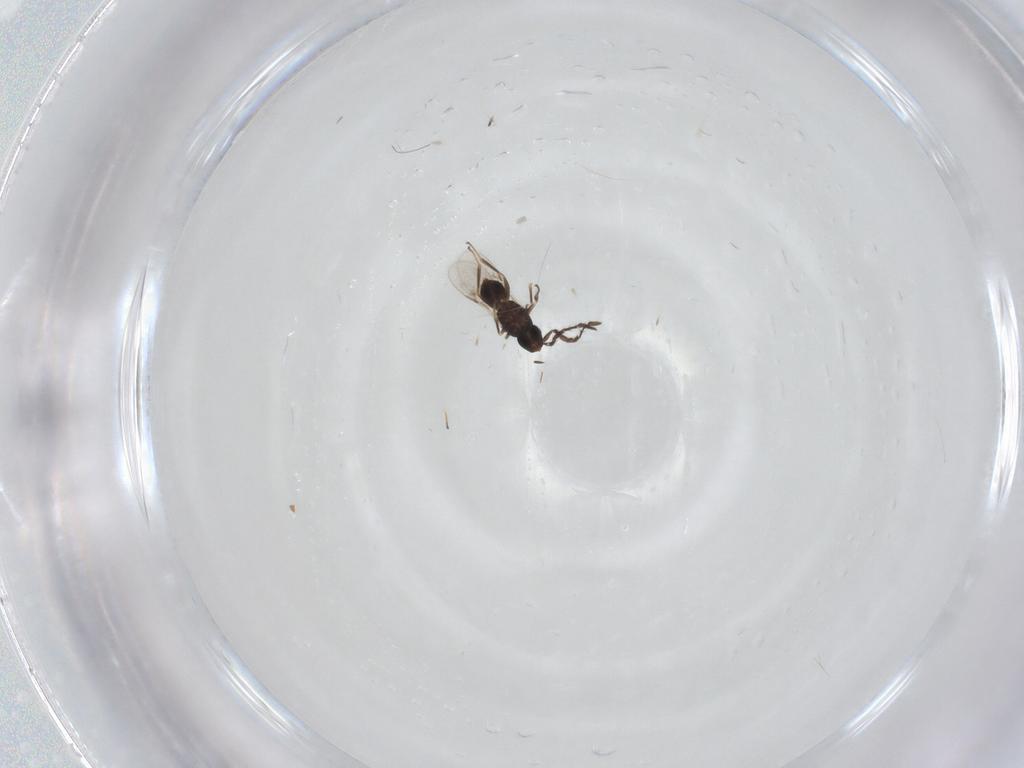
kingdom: Animalia
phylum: Arthropoda
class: Insecta
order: Hymenoptera
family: Encyrtidae
